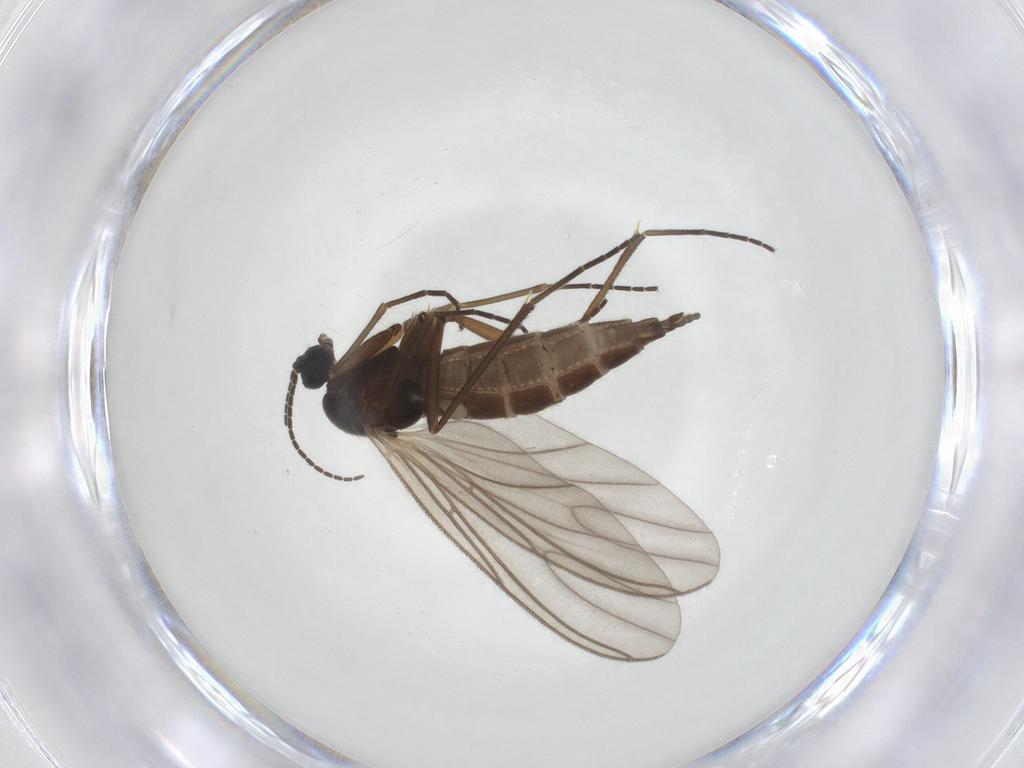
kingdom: Animalia
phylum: Arthropoda
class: Insecta
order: Diptera
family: Sciaridae
